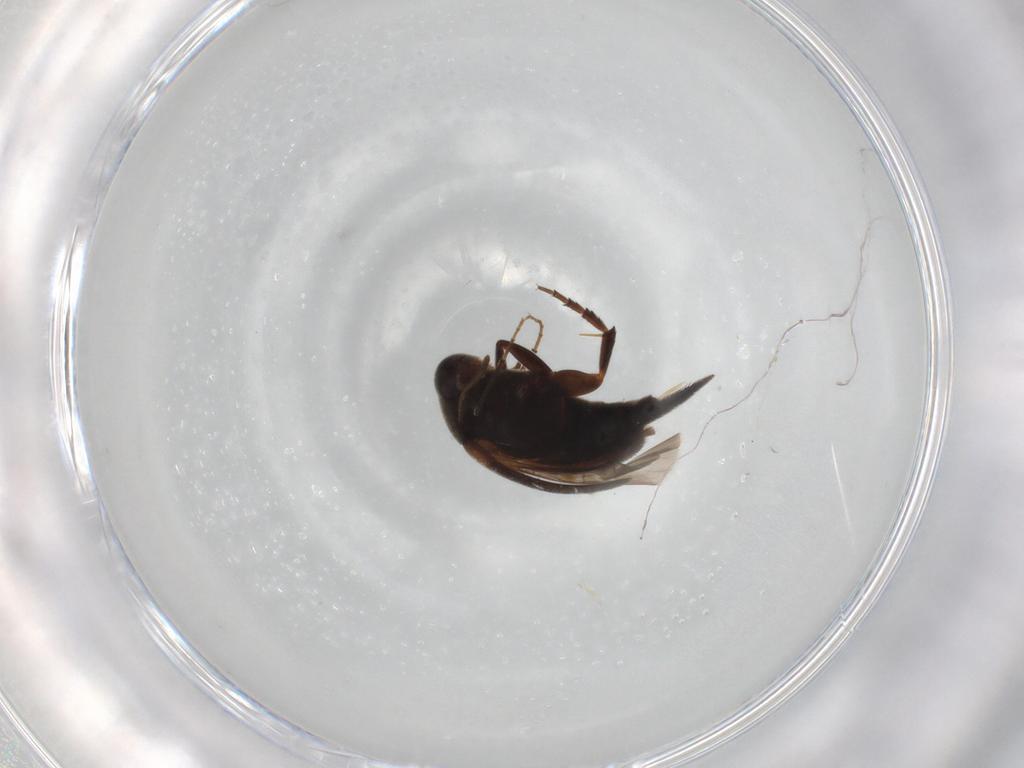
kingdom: Animalia
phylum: Arthropoda
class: Insecta
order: Coleoptera
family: Mordellidae
